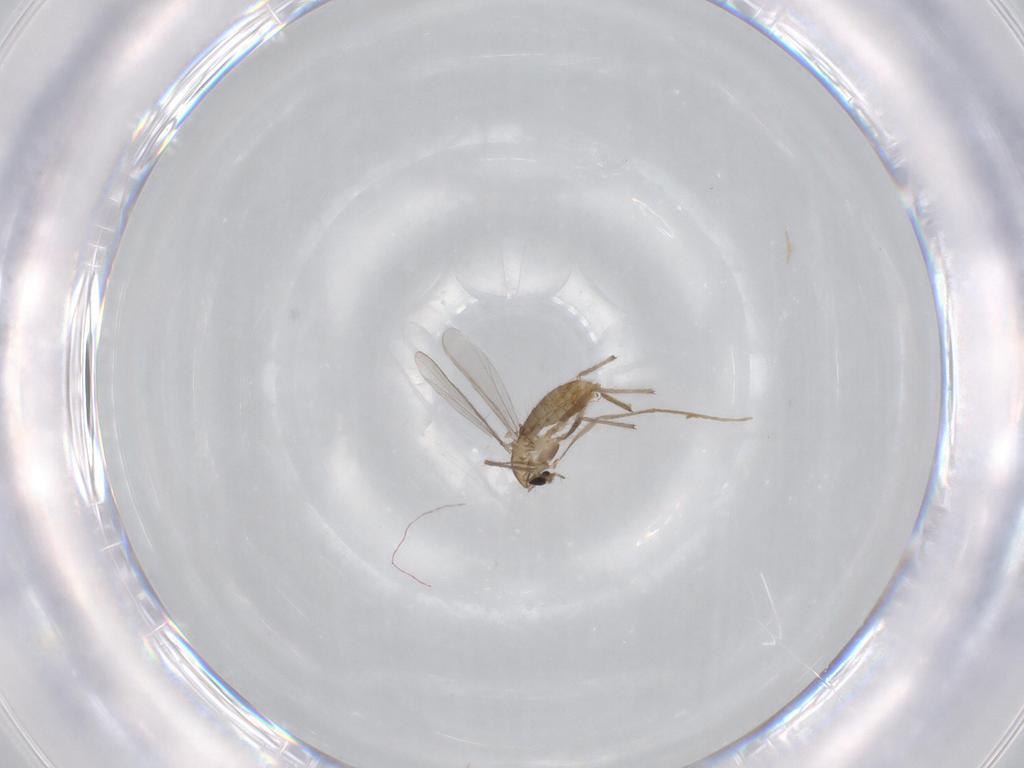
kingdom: Animalia
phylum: Arthropoda
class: Insecta
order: Diptera
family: Chironomidae
